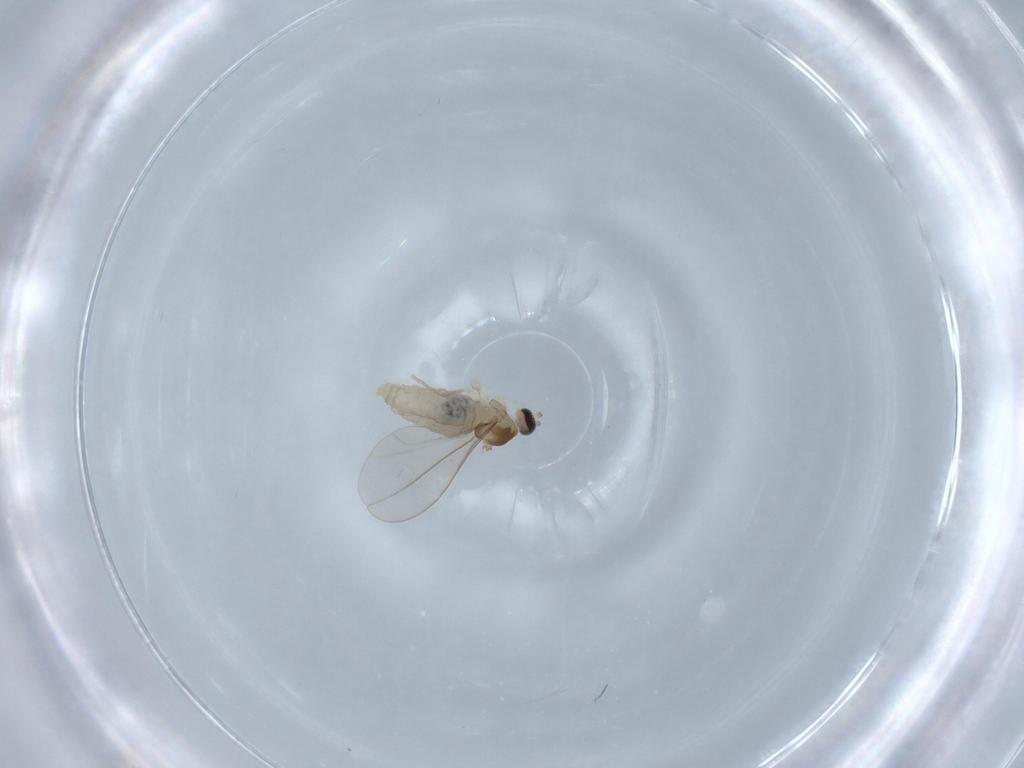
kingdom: Animalia
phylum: Arthropoda
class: Insecta
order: Diptera
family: Cecidomyiidae
